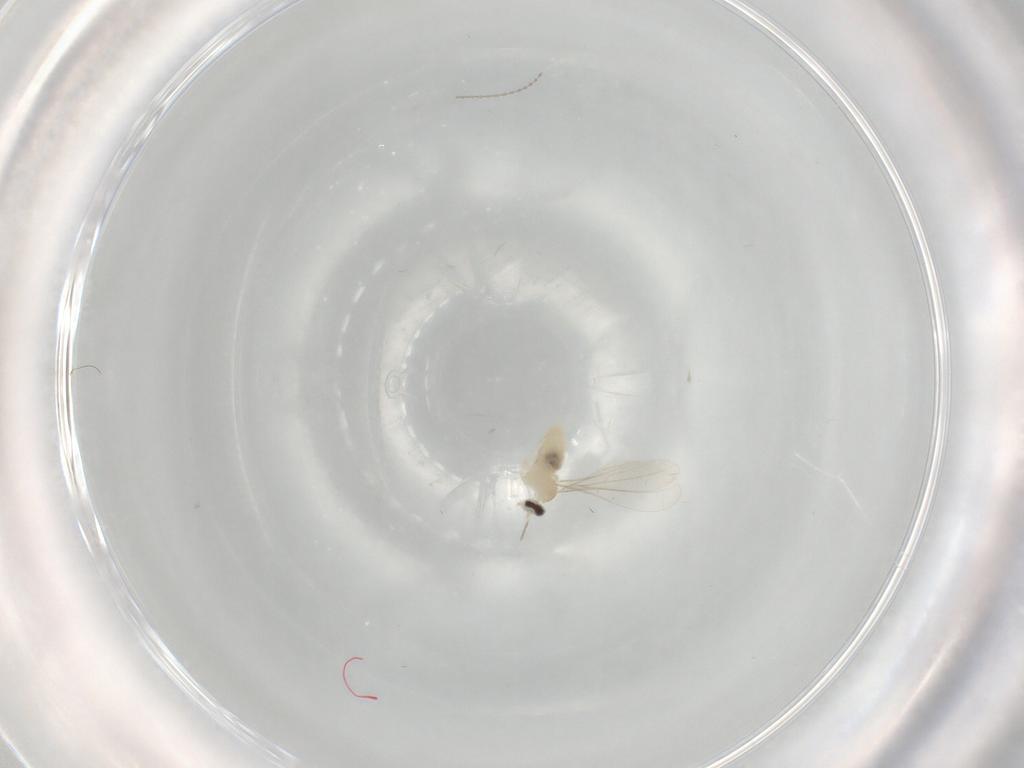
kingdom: Animalia
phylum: Arthropoda
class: Insecta
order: Diptera
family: Cecidomyiidae
